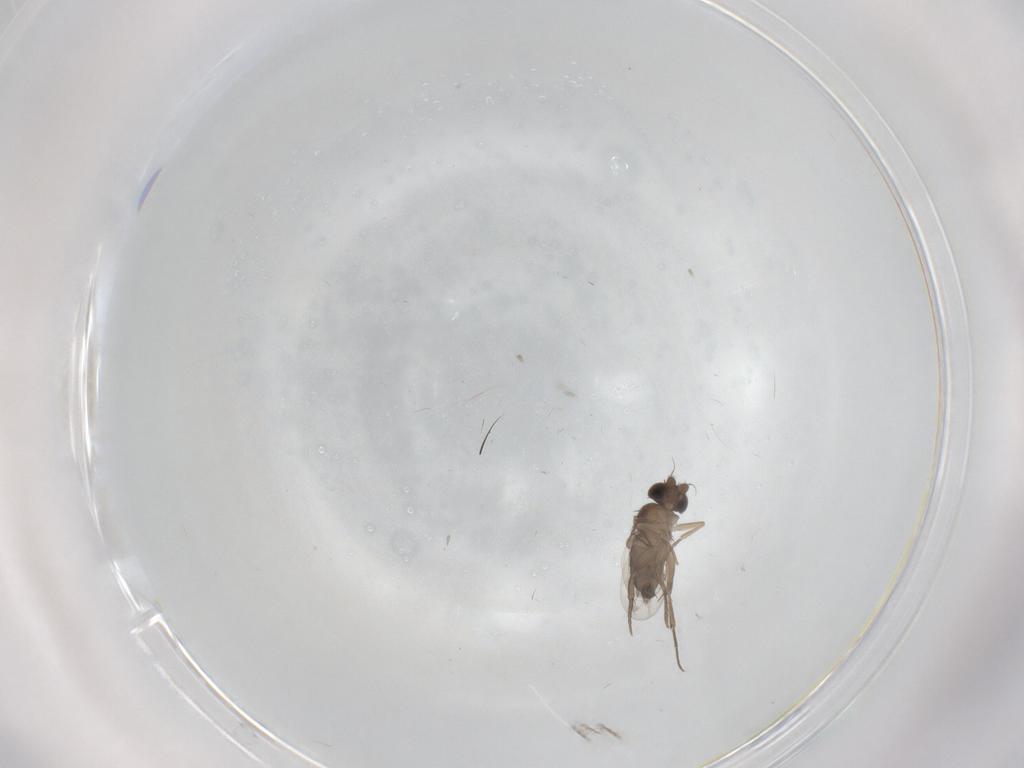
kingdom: Animalia
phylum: Arthropoda
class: Insecta
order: Diptera
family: Phoridae
